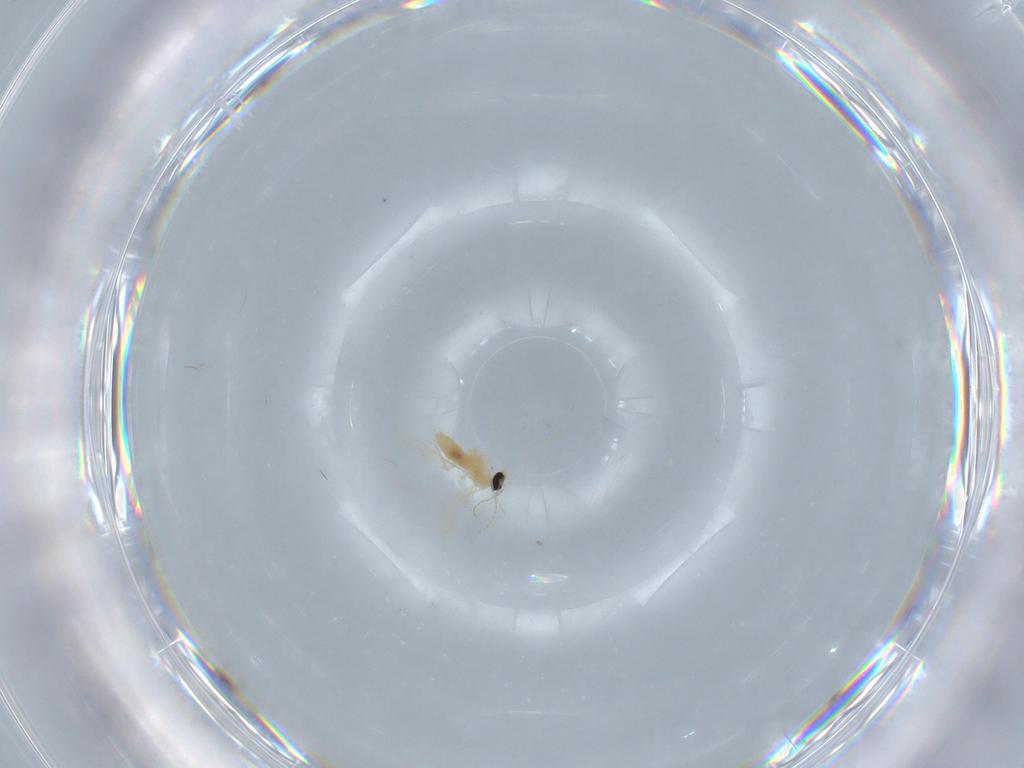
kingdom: Animalia
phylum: Arthropoda
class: Insecta
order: Diptera
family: Cecidomyiidae
